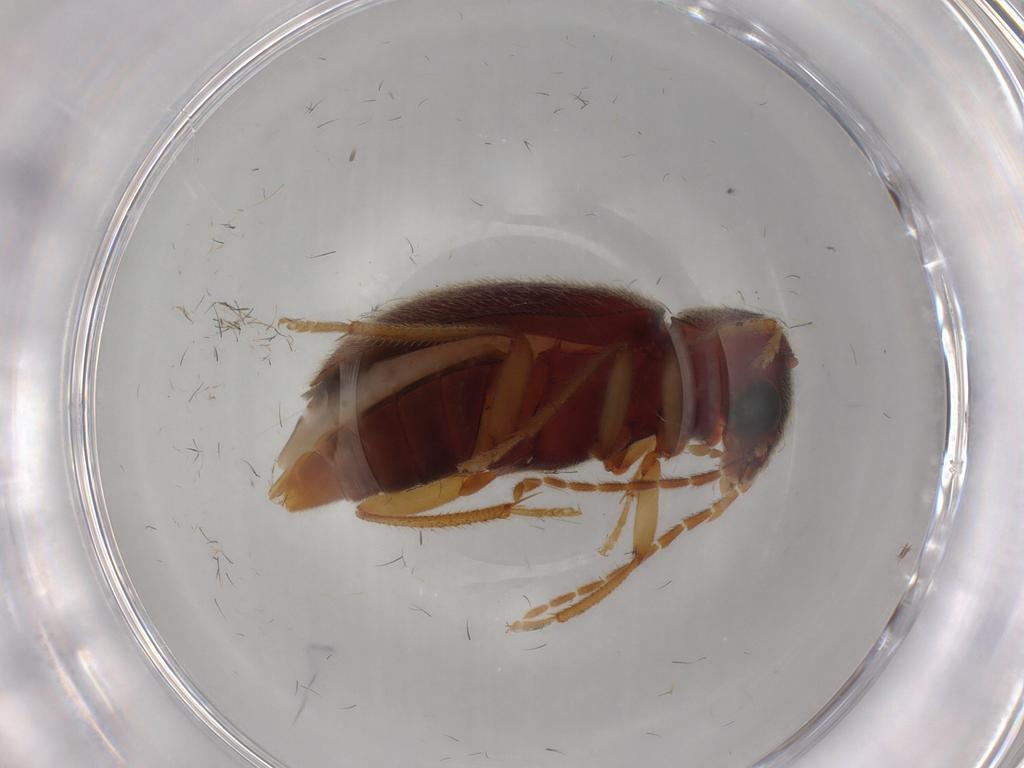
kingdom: Animalia
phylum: Arthropoda
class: Insecta
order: Coleoptera
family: Ptilodactylidae
